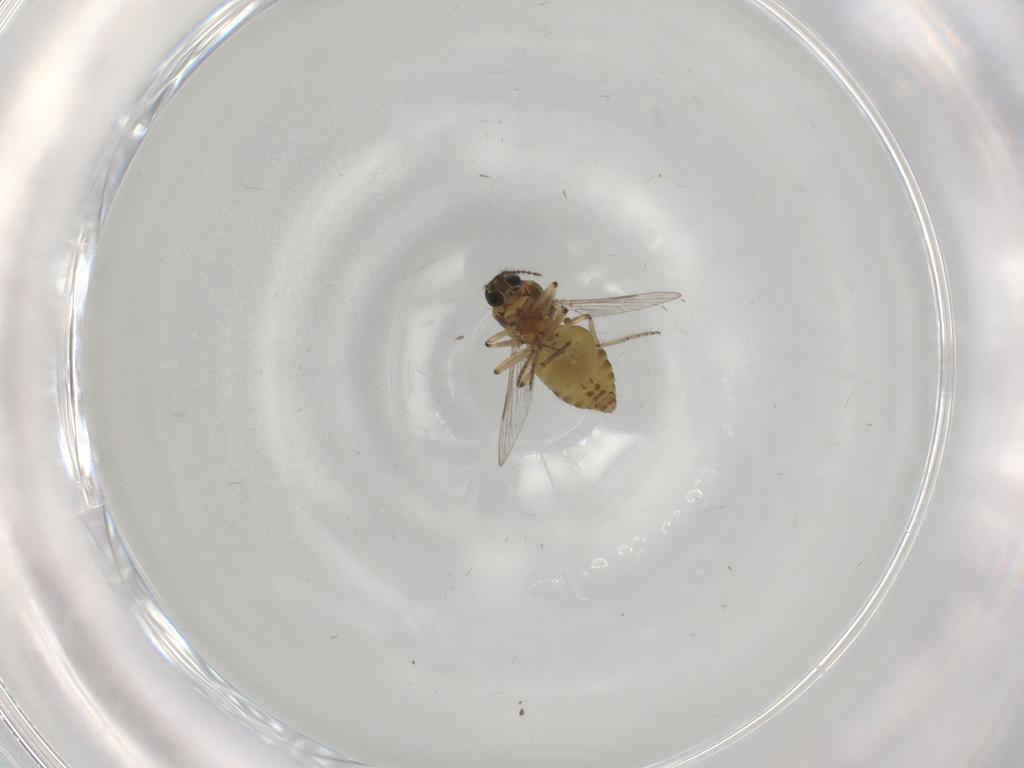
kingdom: Animalia
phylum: Arthropoda
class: Insecta
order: Diptera
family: Ceratopogonidae
